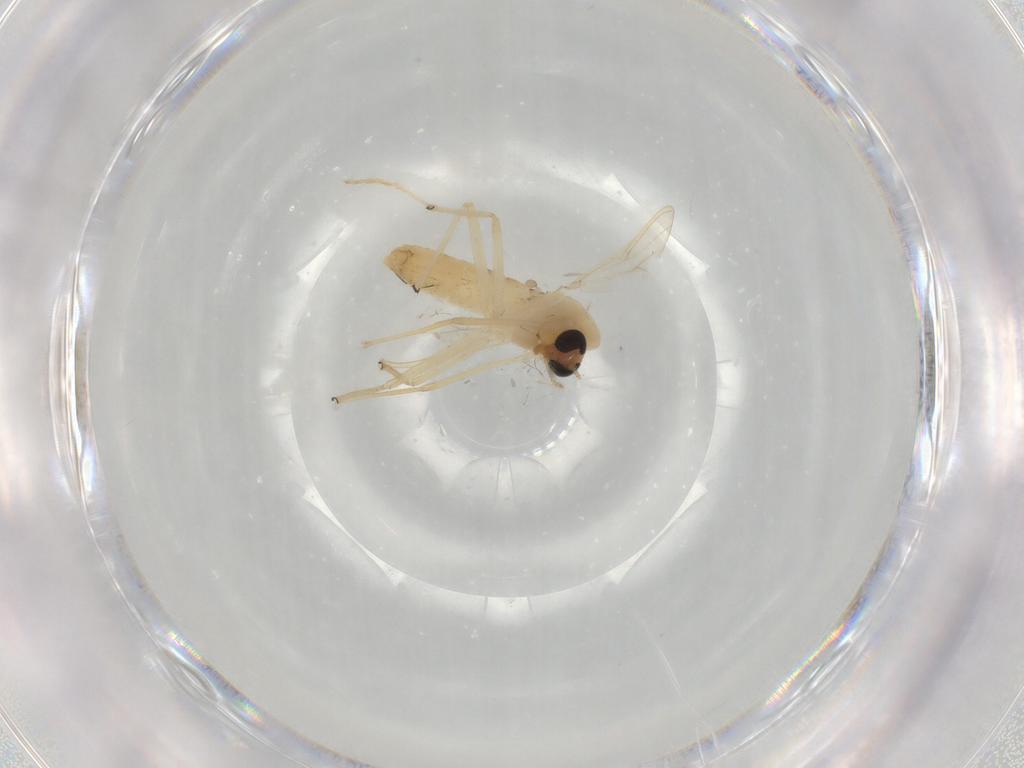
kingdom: Animalia
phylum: Arthropoda
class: Insecta
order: Diptera
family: Chironomidae
